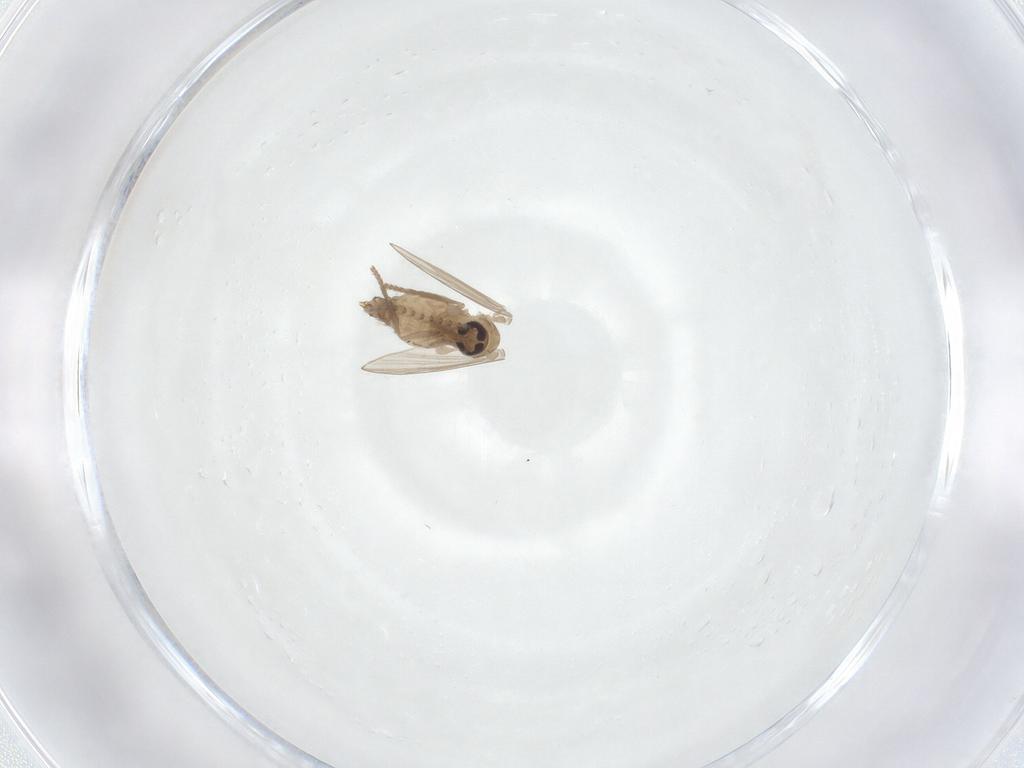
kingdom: Animalia
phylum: Arthropoda
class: Insecta
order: Diptera
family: Psychodidae
